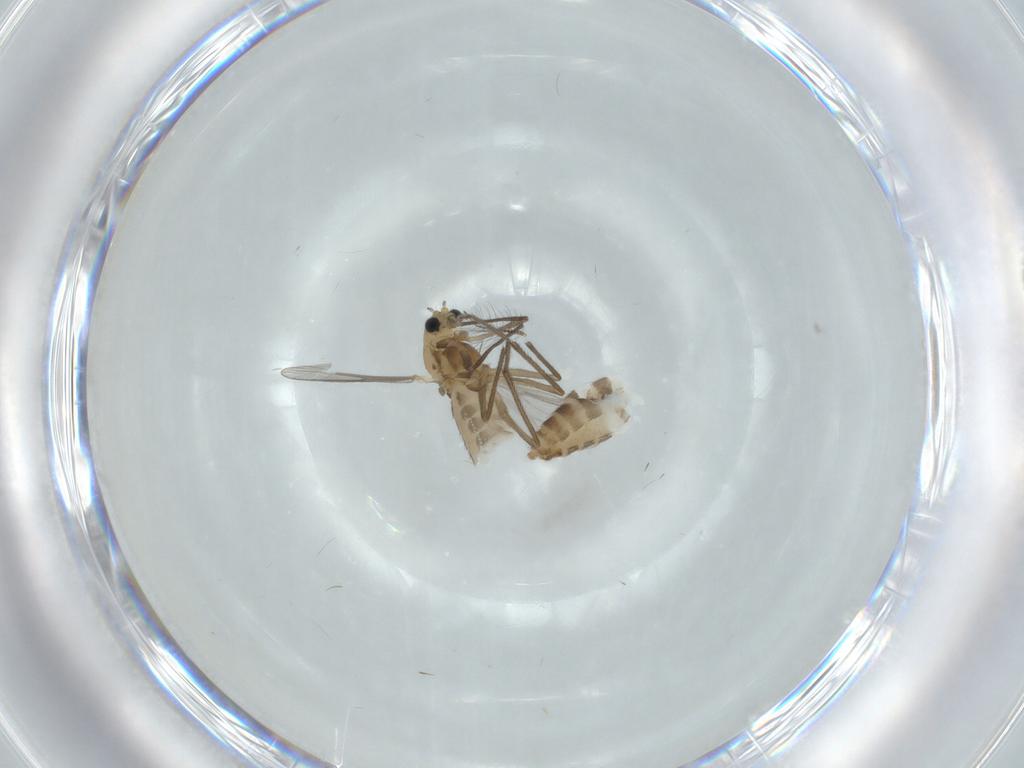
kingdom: Animalia
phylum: Arthropoda
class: Insecta
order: Diptera
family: Chironomidae
